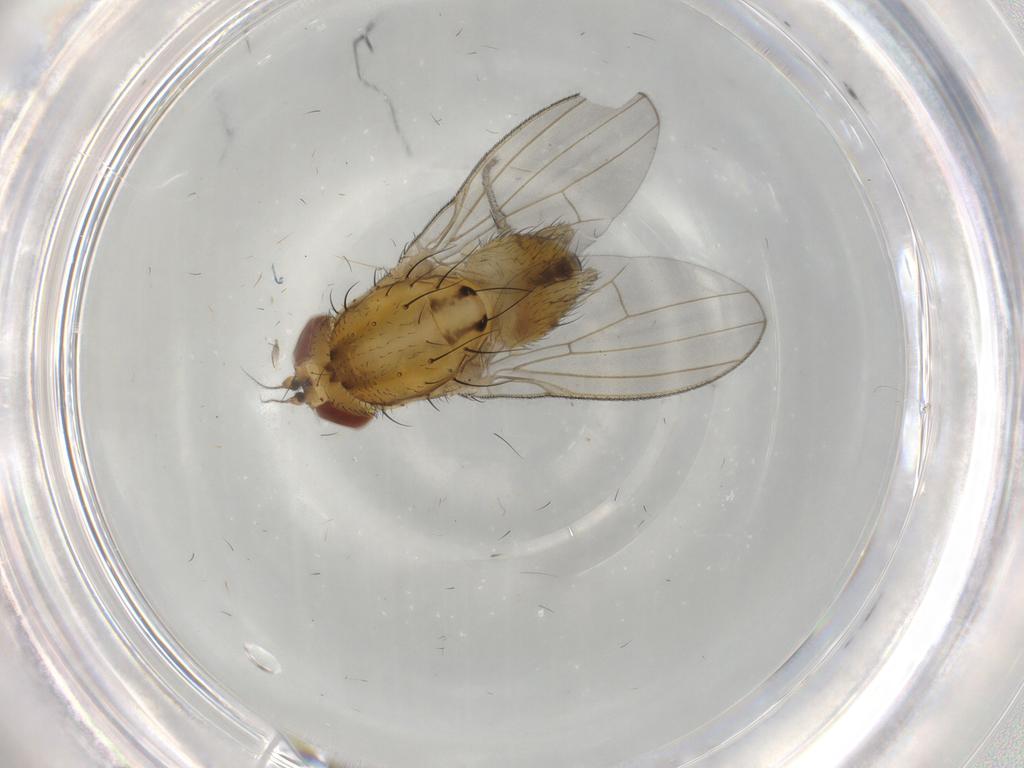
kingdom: Animalia
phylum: Arthropoda
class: Insecta
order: Diptera
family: Lauxaniidae
